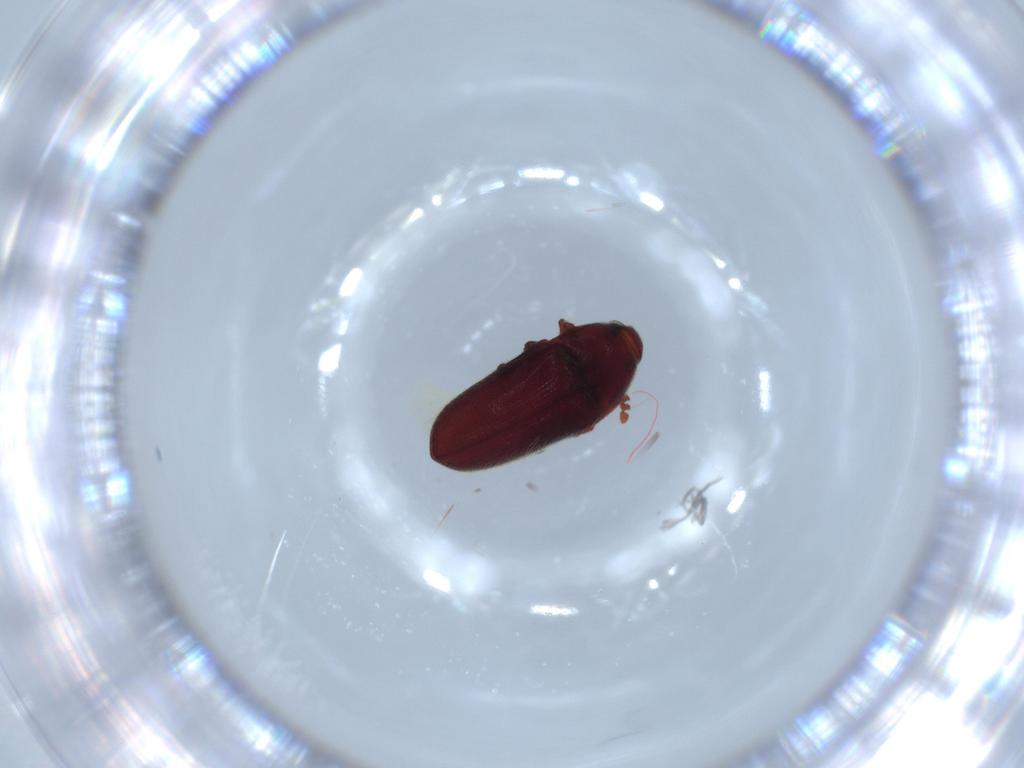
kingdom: Animalia
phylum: Arthropoda
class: Insecta
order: Coleoptera
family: Throscidae
